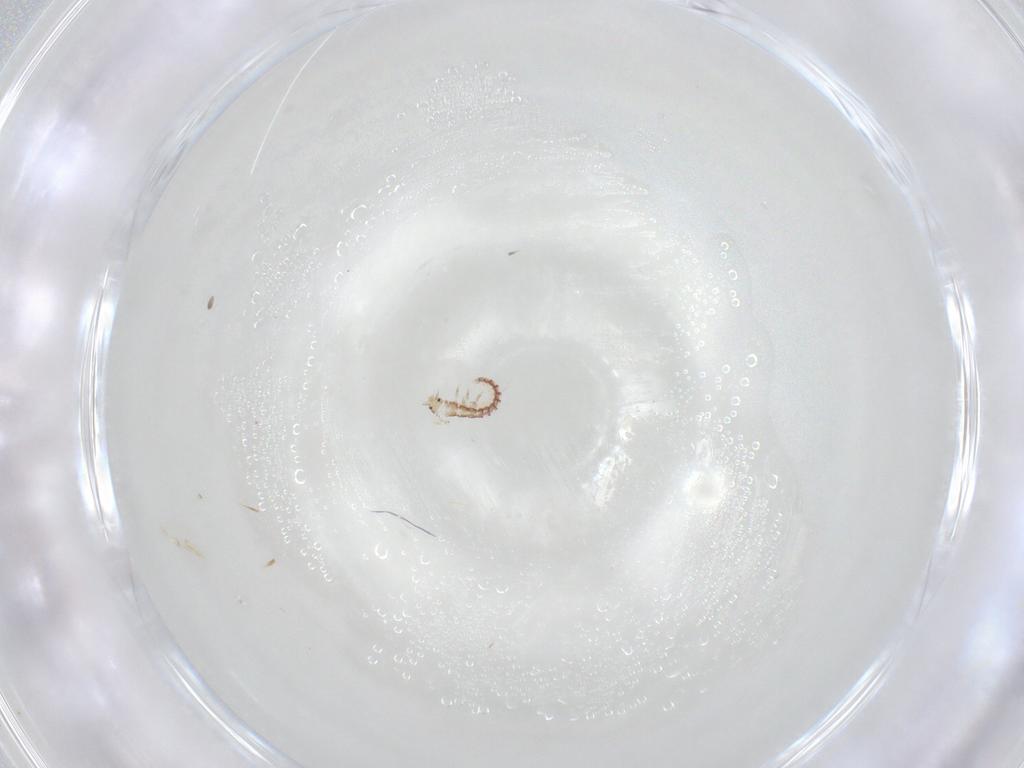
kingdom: Animalia
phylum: Arthropoda
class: Insecta
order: Neuroptera
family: Mantispidae
